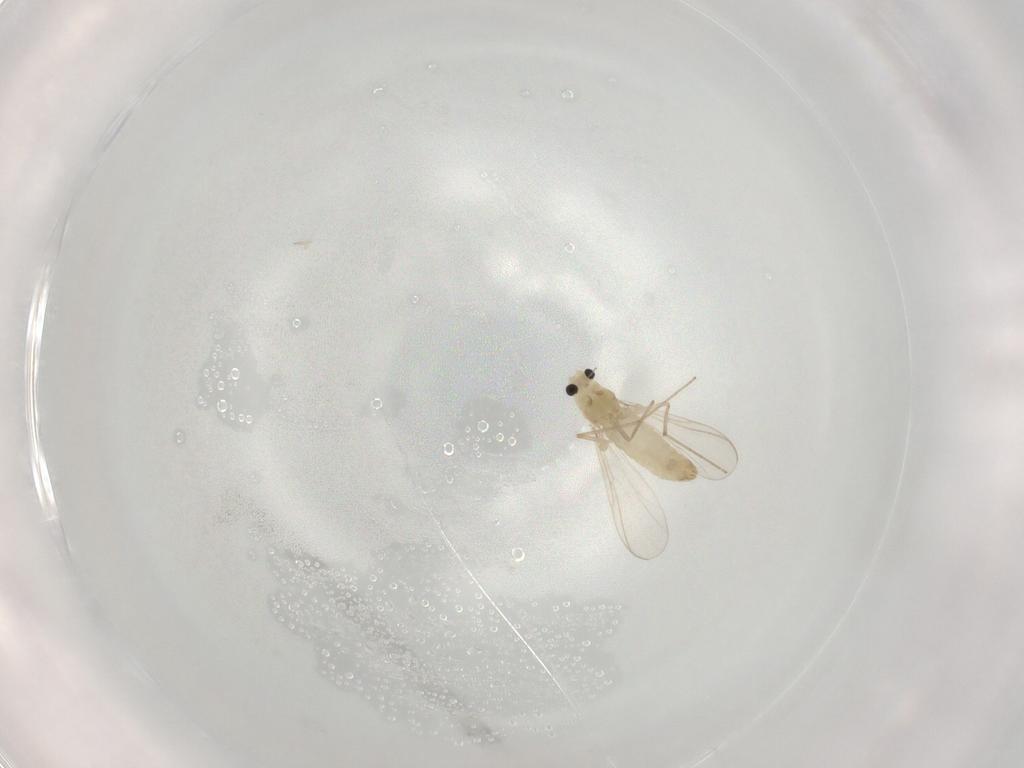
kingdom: Animalia
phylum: Arthropoda
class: Insecta
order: Diptera
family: Chironomidae
